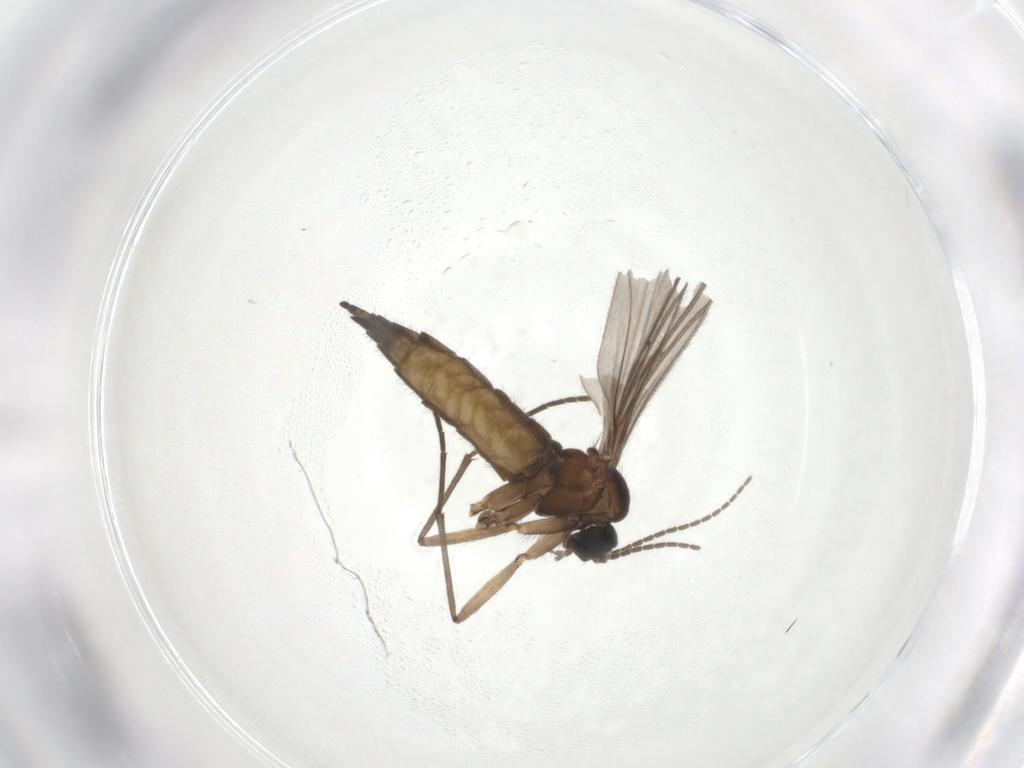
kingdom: Animalia
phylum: Arthropoda
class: Insecta
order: Diptera
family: Sciaridae
